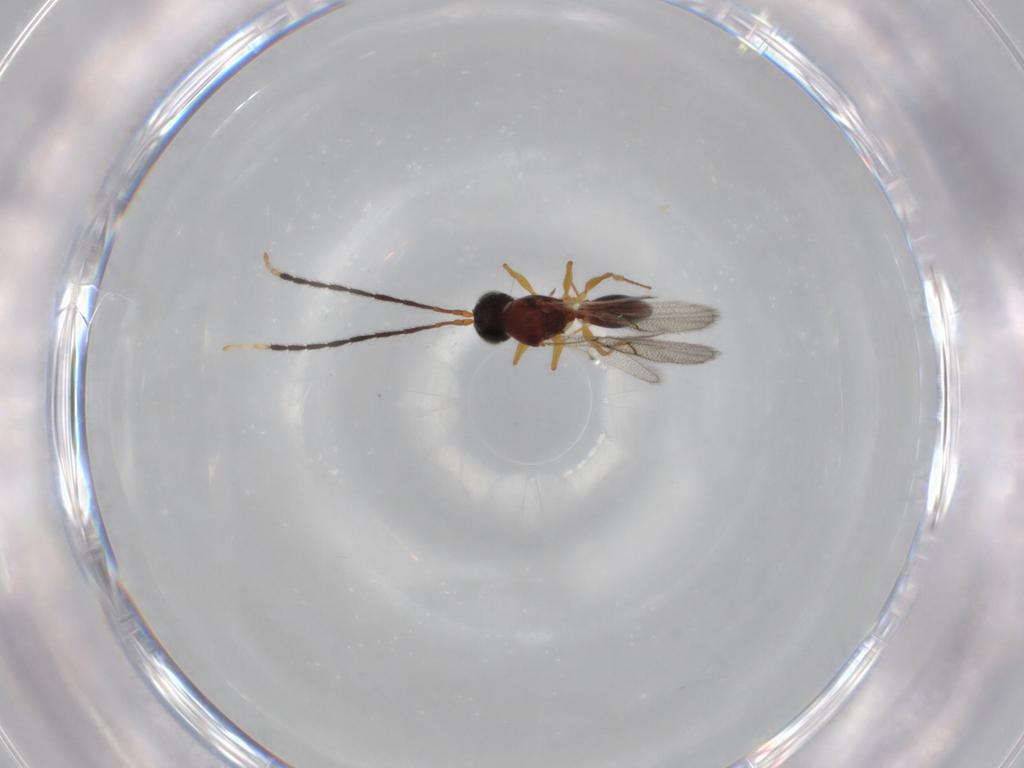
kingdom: Animalia
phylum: Arthropoda
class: Insecta
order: Hymenoptera
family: Figitidae
